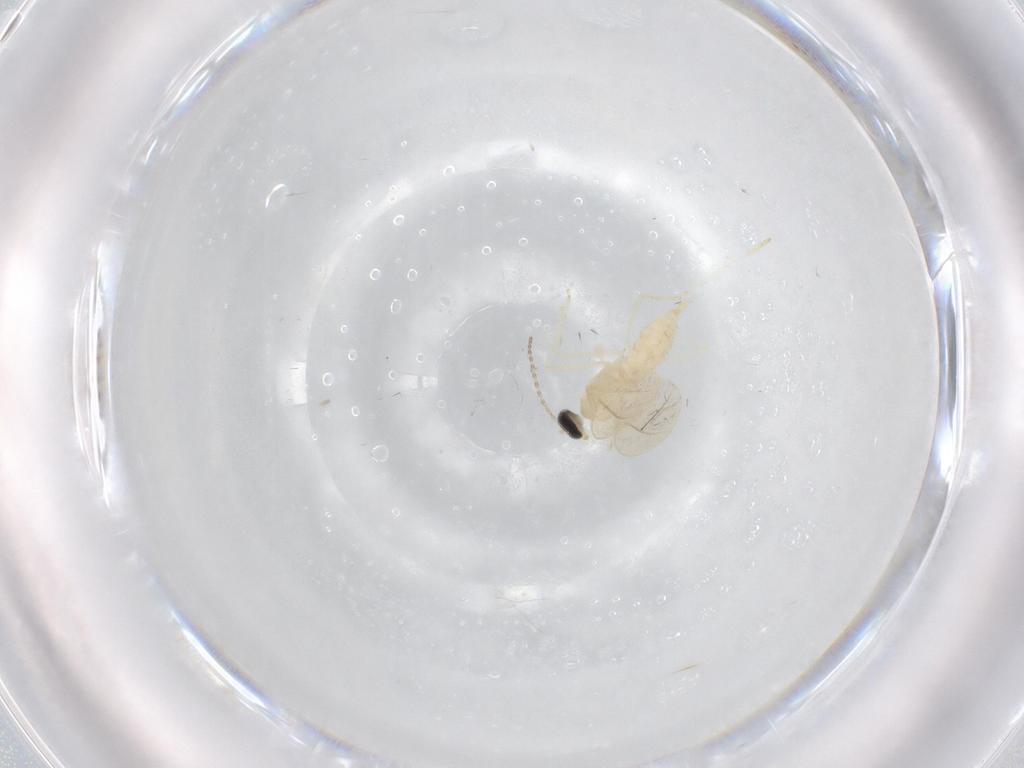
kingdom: Animalia
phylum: Arthropoda
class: Insecta
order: Diptera
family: Cecidomyiidae
